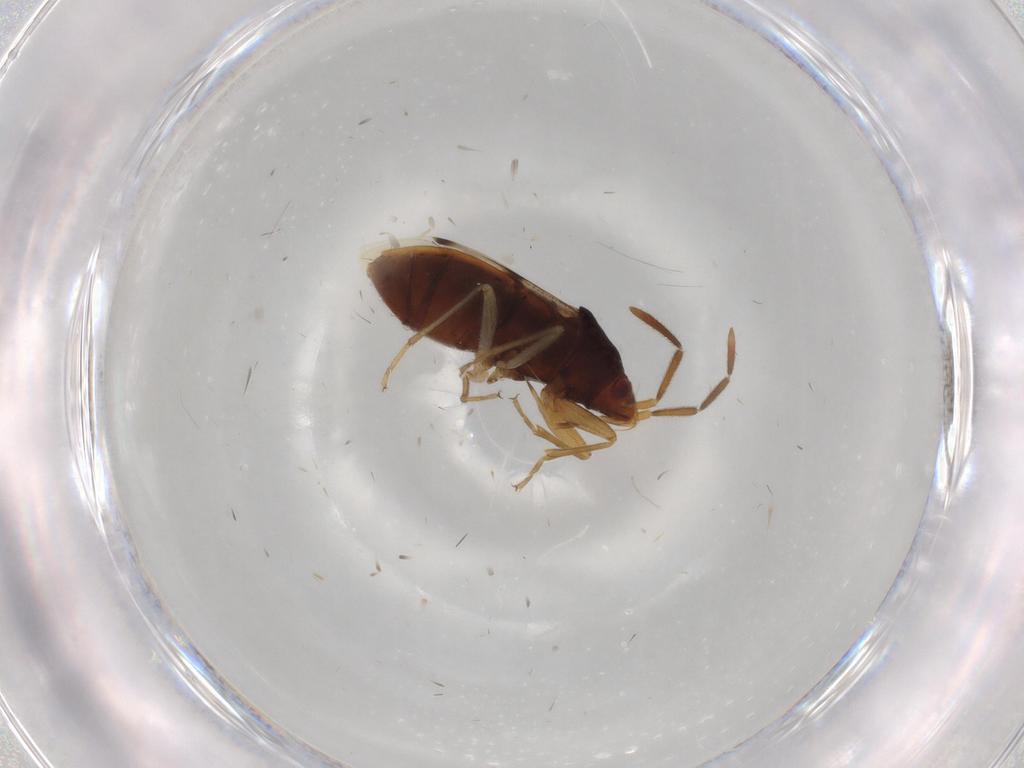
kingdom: Animalia
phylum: Arthropoda
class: Insecta
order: Hemiptera
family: Rhyparochromidae
